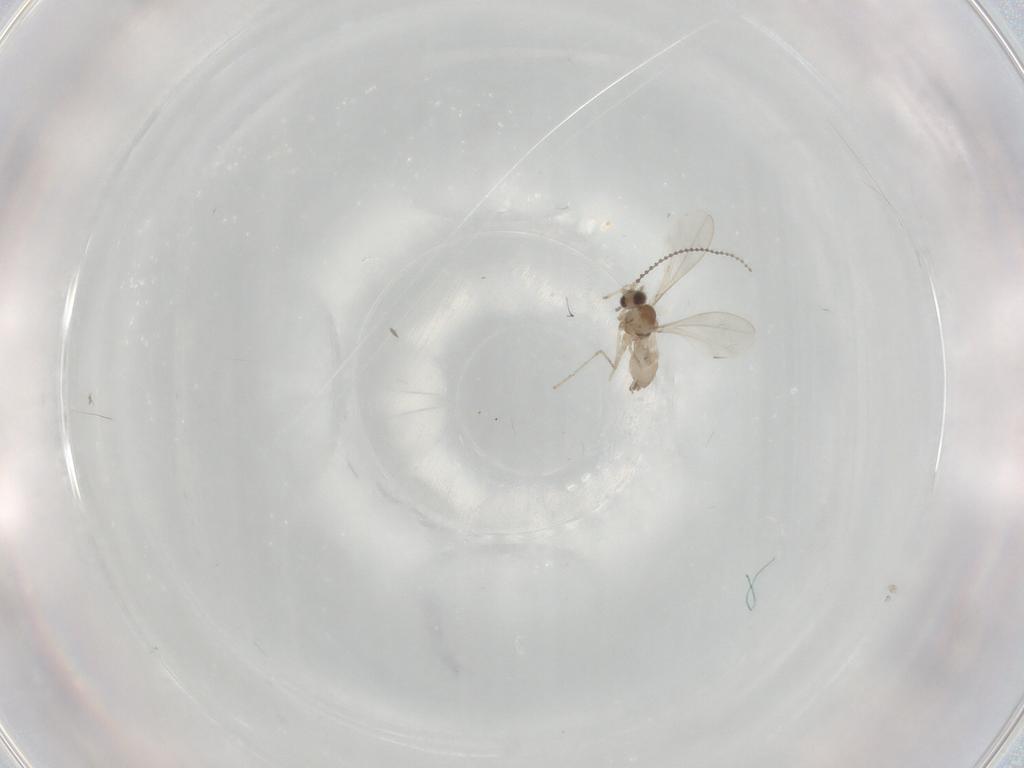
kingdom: Animalia
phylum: Arthropoda
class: Insecta
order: Diptera
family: Cecidomyiidae
